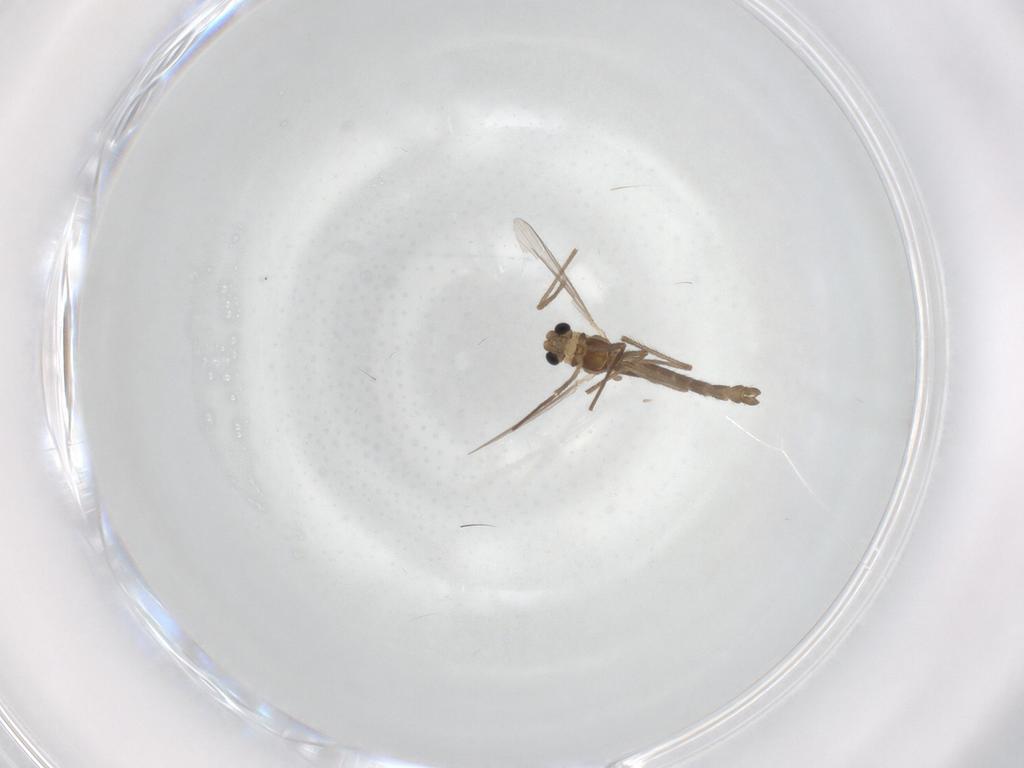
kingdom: Animalia
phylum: Arthropoda
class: Insecta
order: Diptera
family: Chironomidae
